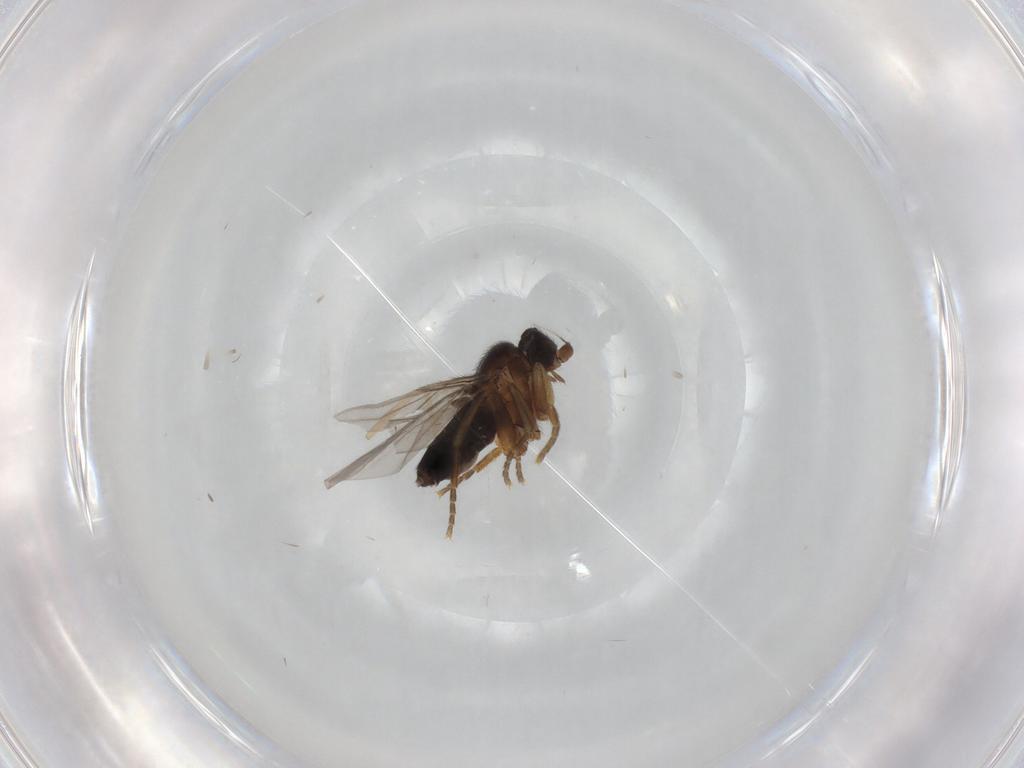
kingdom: Animalia
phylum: Arthropoda
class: Insecta
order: Diptera
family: Cecidomyiidae
